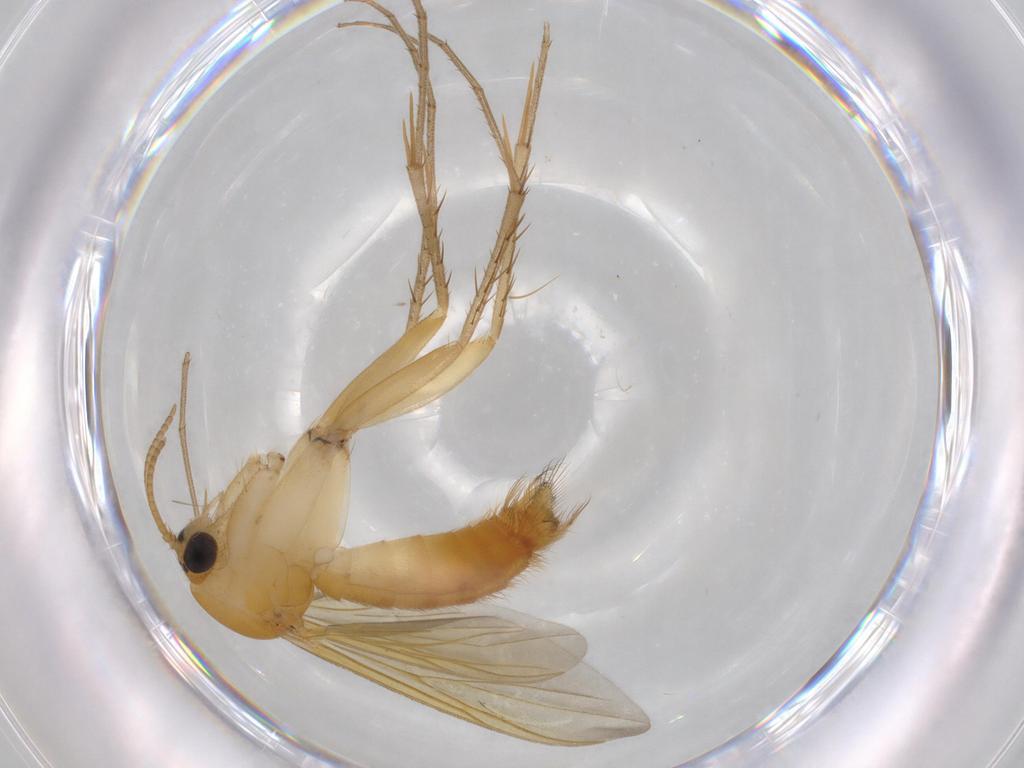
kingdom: Animalia
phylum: Arthropoda
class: Insecta
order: Diptera
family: Mycetophilidae
